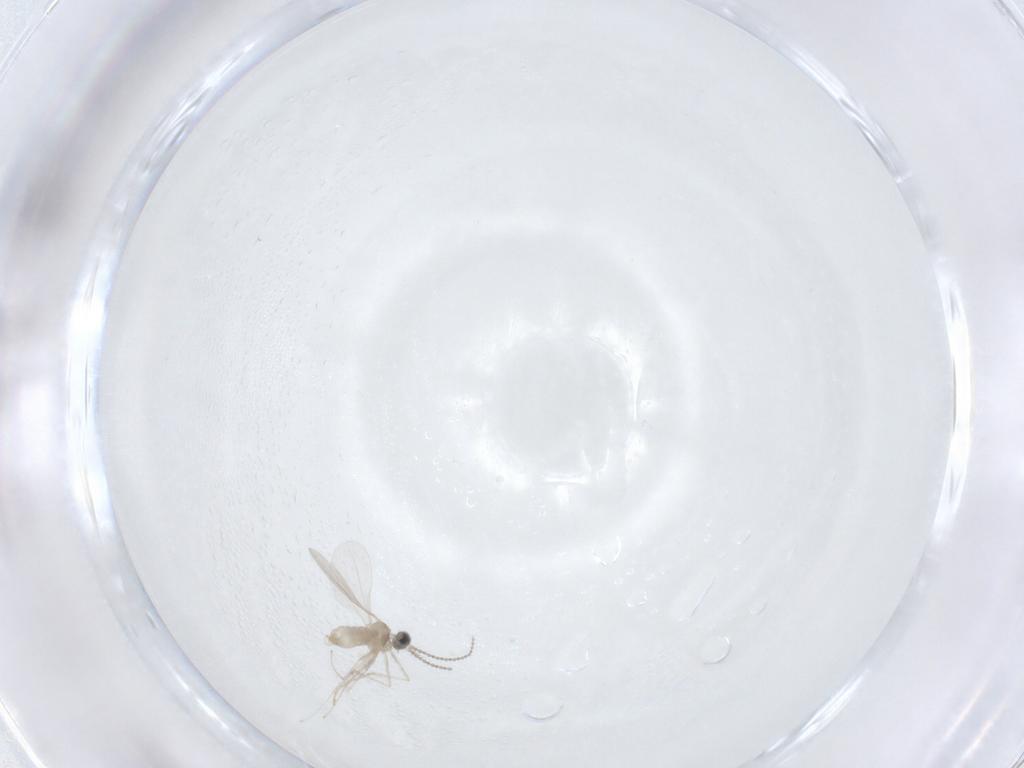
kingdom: Animalia
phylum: Arthropoda
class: Insecta
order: Diptera
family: Cecidomyiidae
